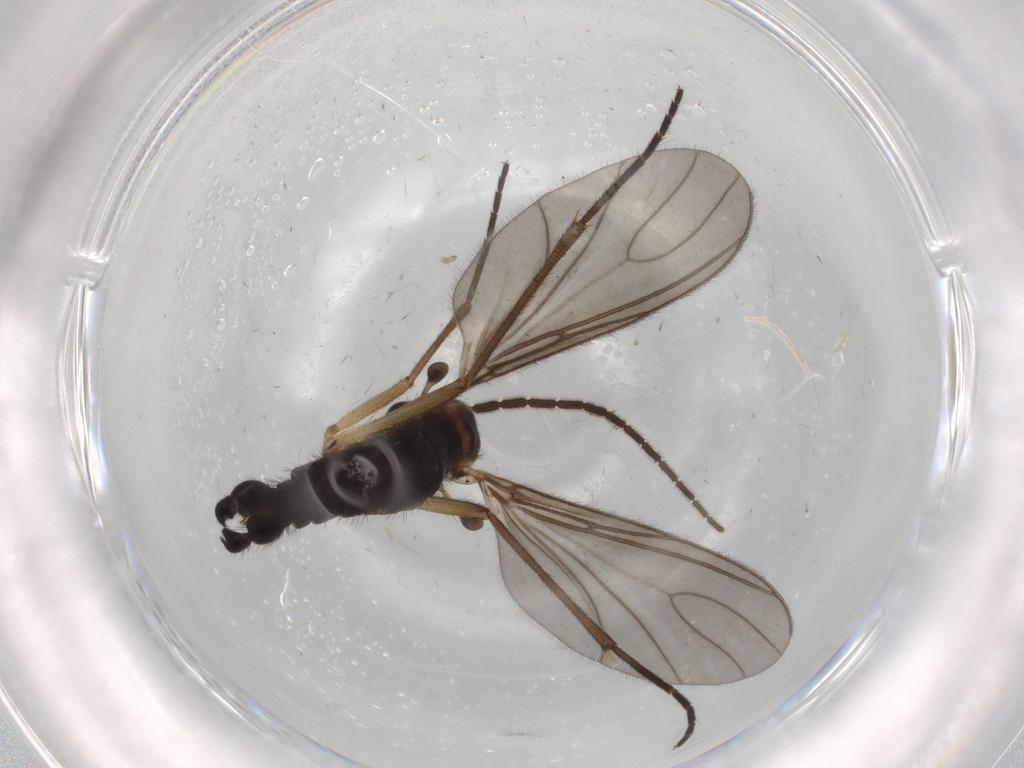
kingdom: Animalia
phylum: Arthropoda
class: Insecta
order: Diptera
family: Sciaridae
